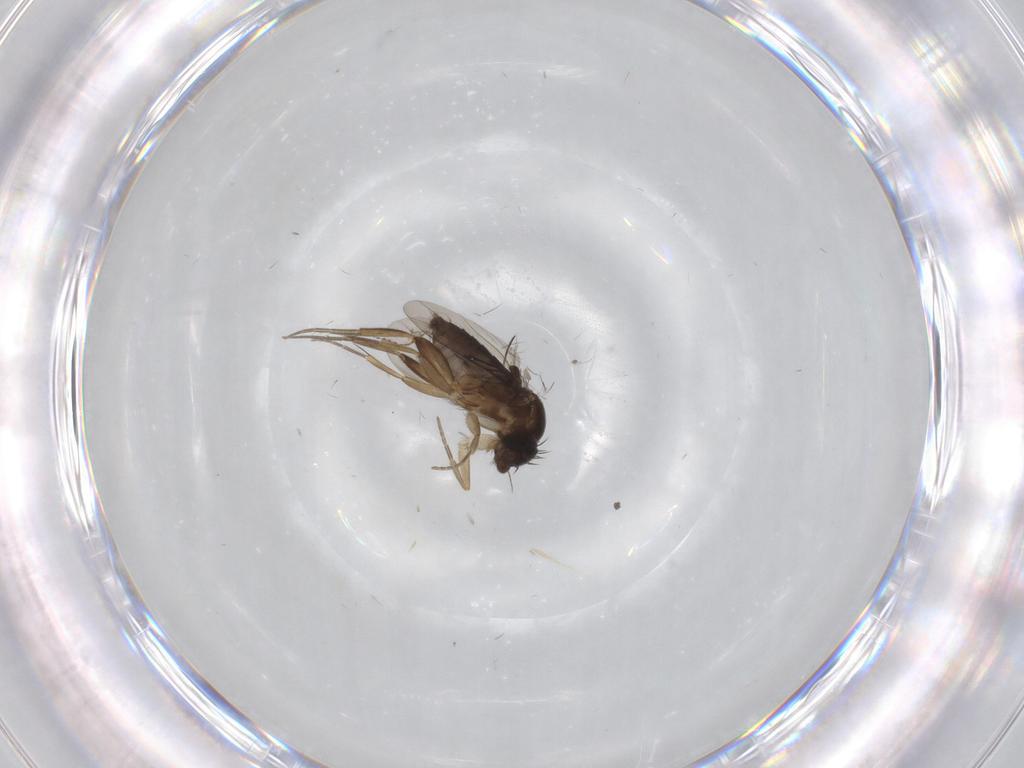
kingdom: Animalia
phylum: Arthropoda
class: Insecta
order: Diptera
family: Phoridae
